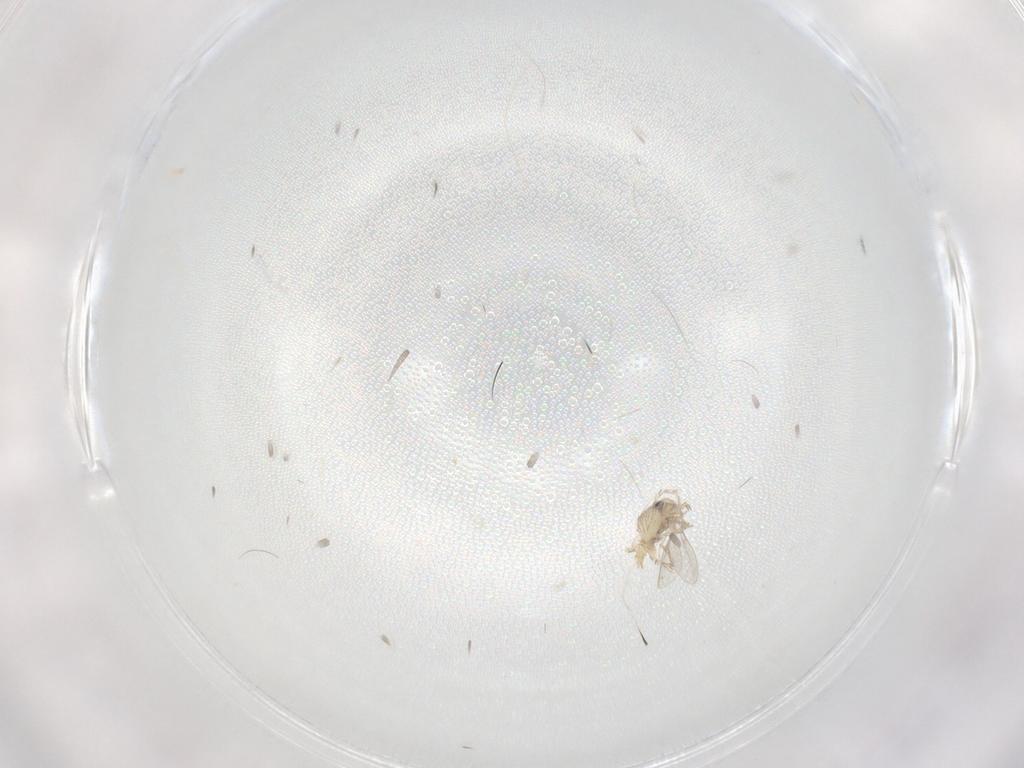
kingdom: Animalia
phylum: Arthropoda
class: Arachnida
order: Trombidiformes
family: Erythraeidae
